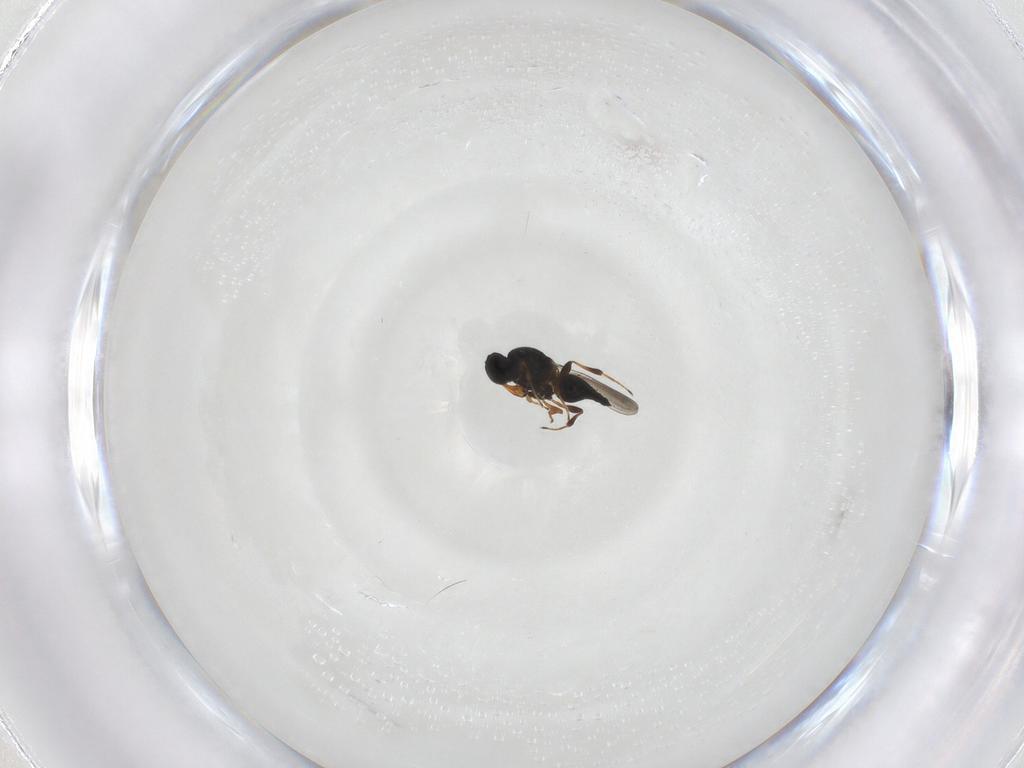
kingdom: Animalia
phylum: Arthropoda
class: Insecta
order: Hymenoptera
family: Platygastridae
